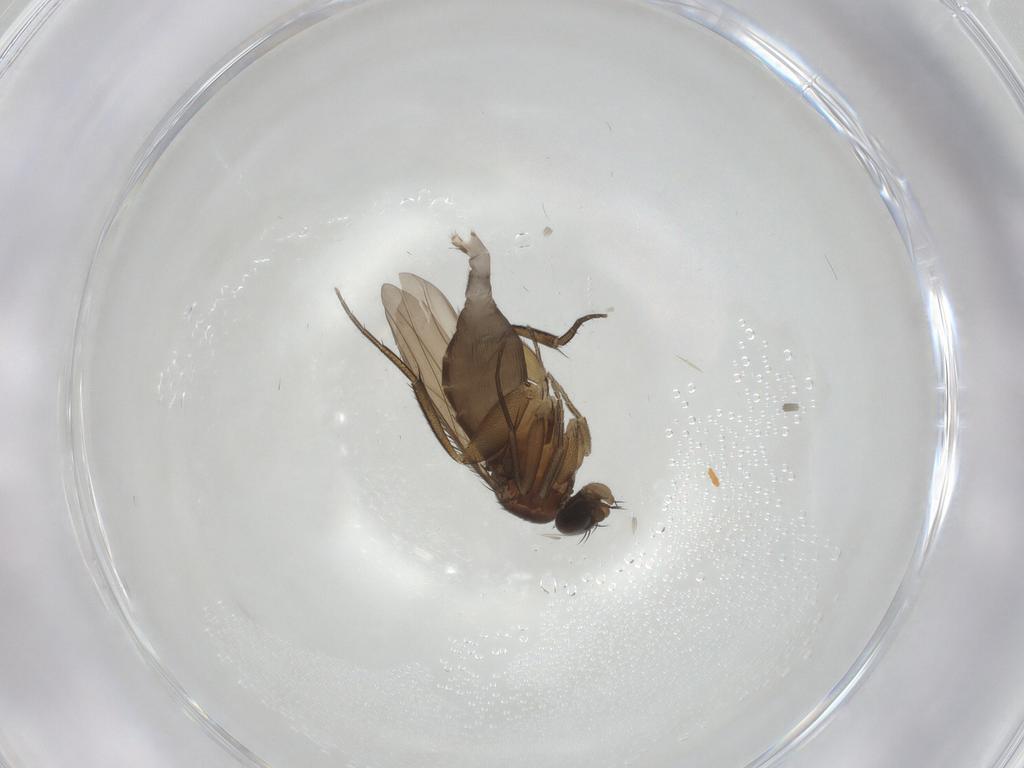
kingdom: Animalia
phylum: Arthropoda
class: Insecta
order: Diptera
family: Phoridae
